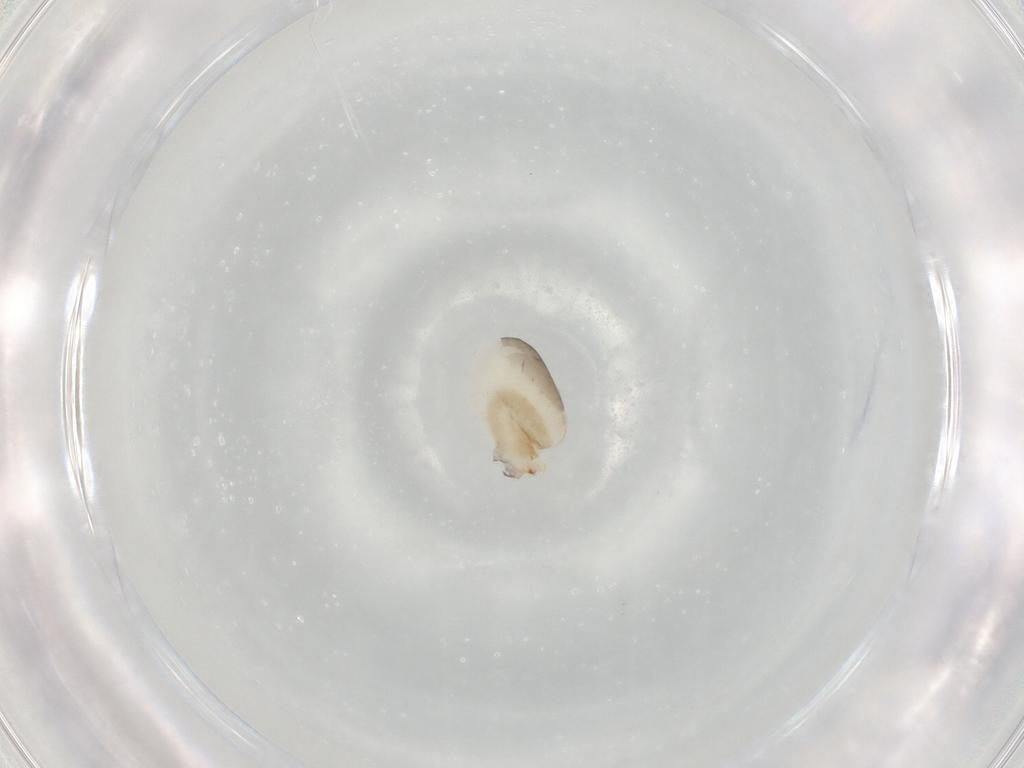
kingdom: Animalia
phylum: Arthropoda
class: Insecta
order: Hymenoptera
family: Dryinidae
